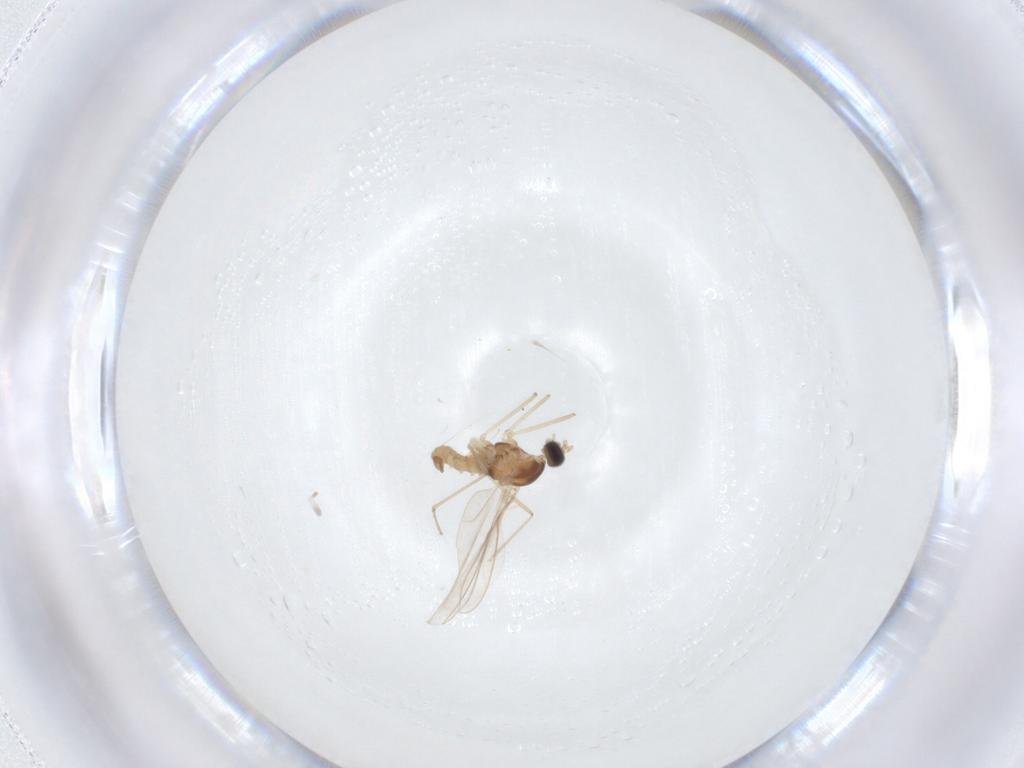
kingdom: Animalia
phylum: Arthropoda
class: Insecta
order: Diptera
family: Cecidomyiidae
